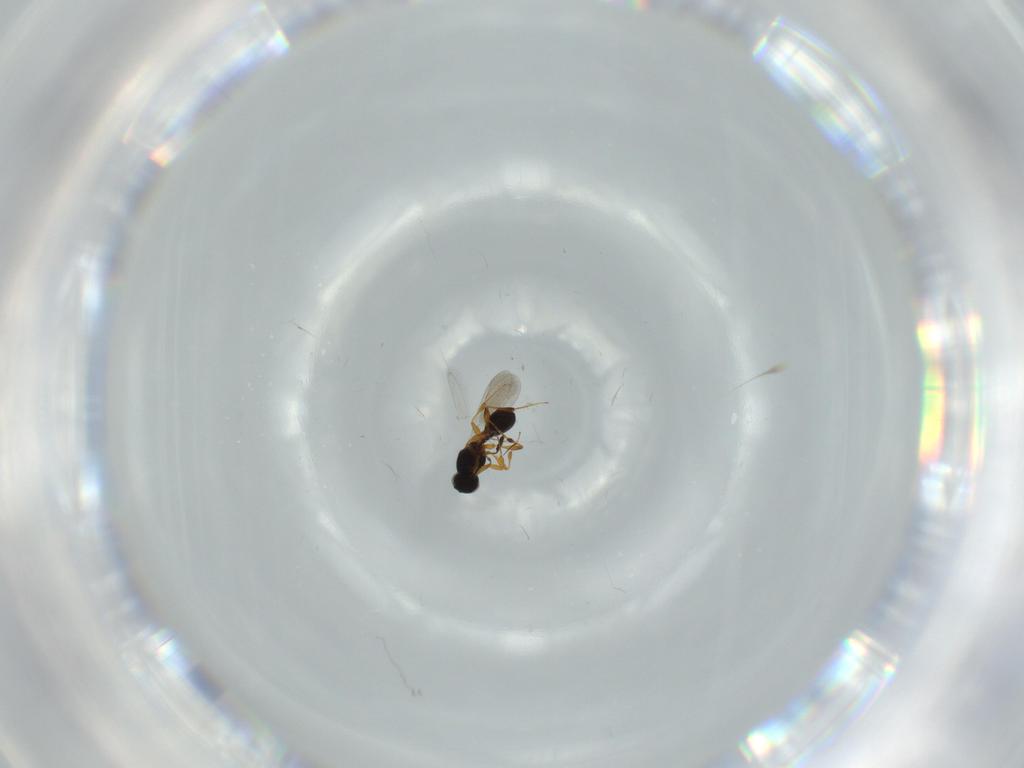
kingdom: Animalia
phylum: Arthropoda
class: Insecta
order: Hymenoptera
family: Platygastridae
